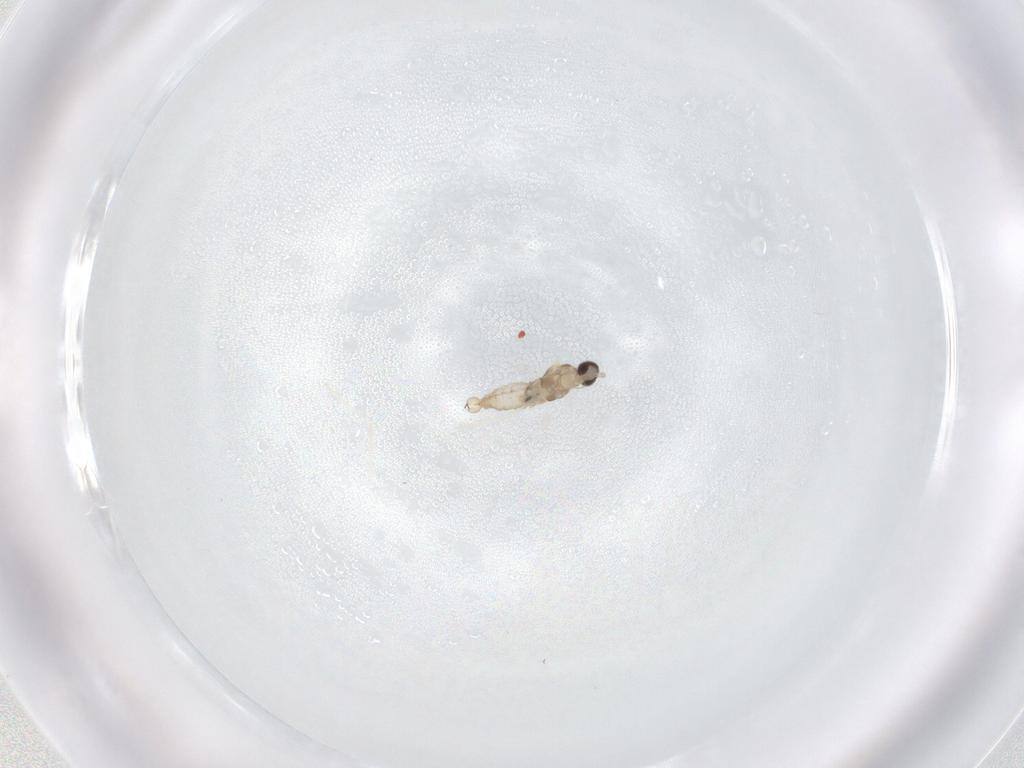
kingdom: Animalia
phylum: Arthropoda
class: Insecta
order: Diptera
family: Cecidomyiidae
